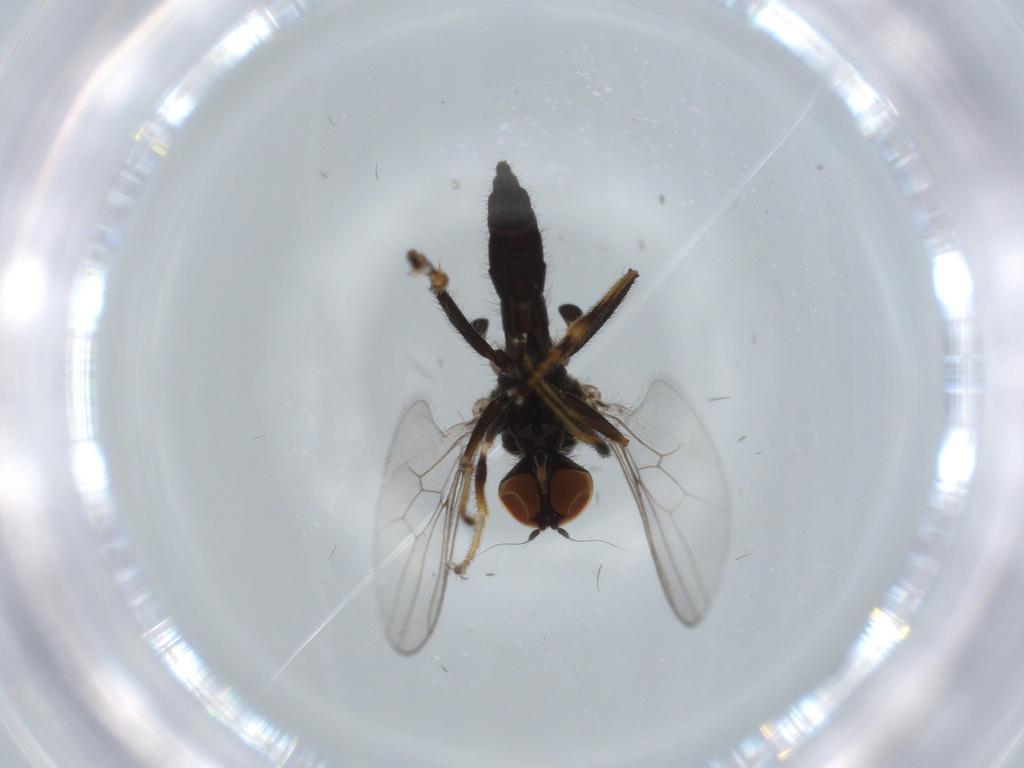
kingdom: Animalia
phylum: Arthropoda
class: Insecta
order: Diptera
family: Hybotidae
